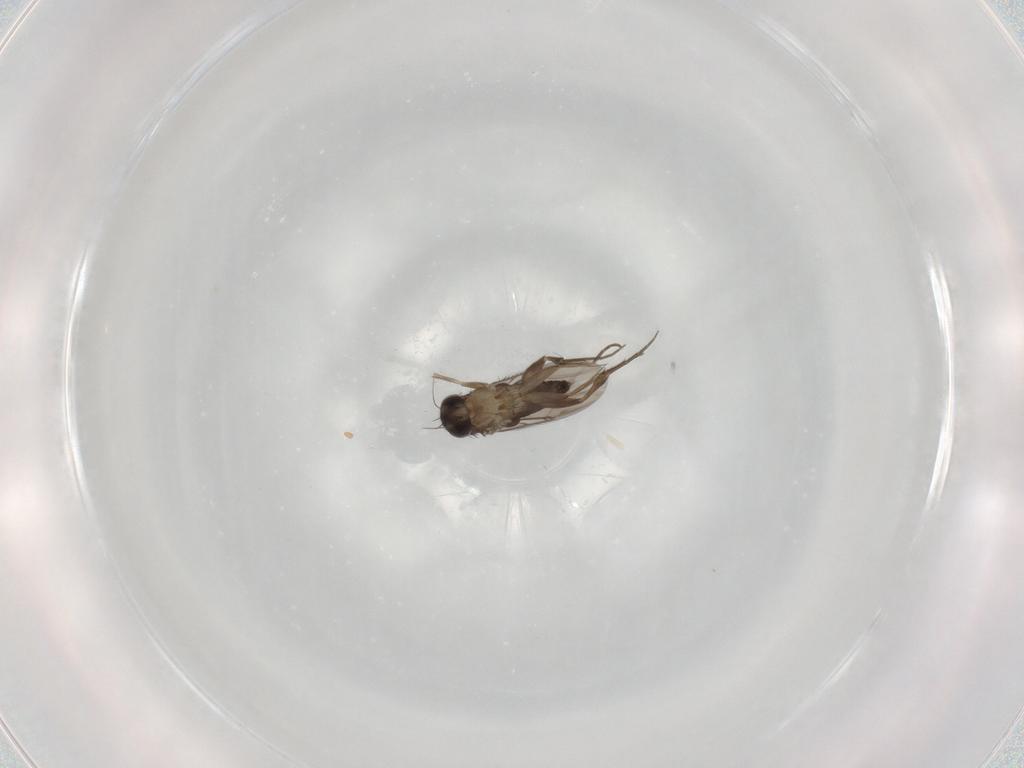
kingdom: Animalia
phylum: Arthropoda
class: Insecta
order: Diptera
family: Phoridae
